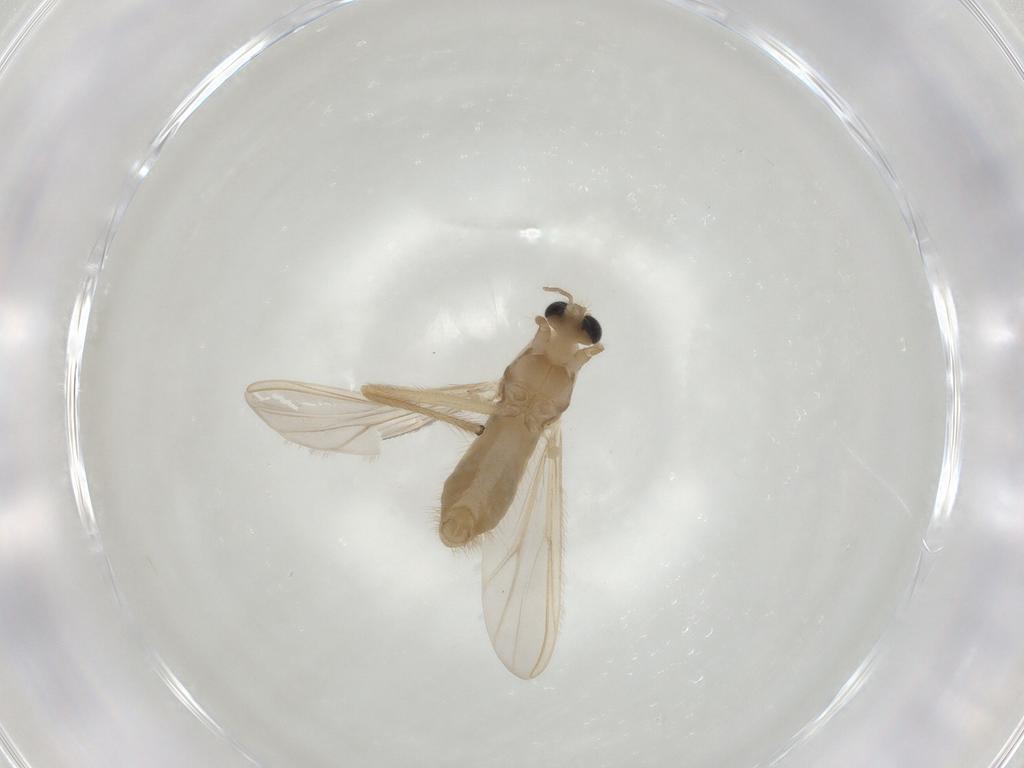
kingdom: Animalia
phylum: Arthropoda
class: Insecta
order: Diptera
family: Chironomidae
